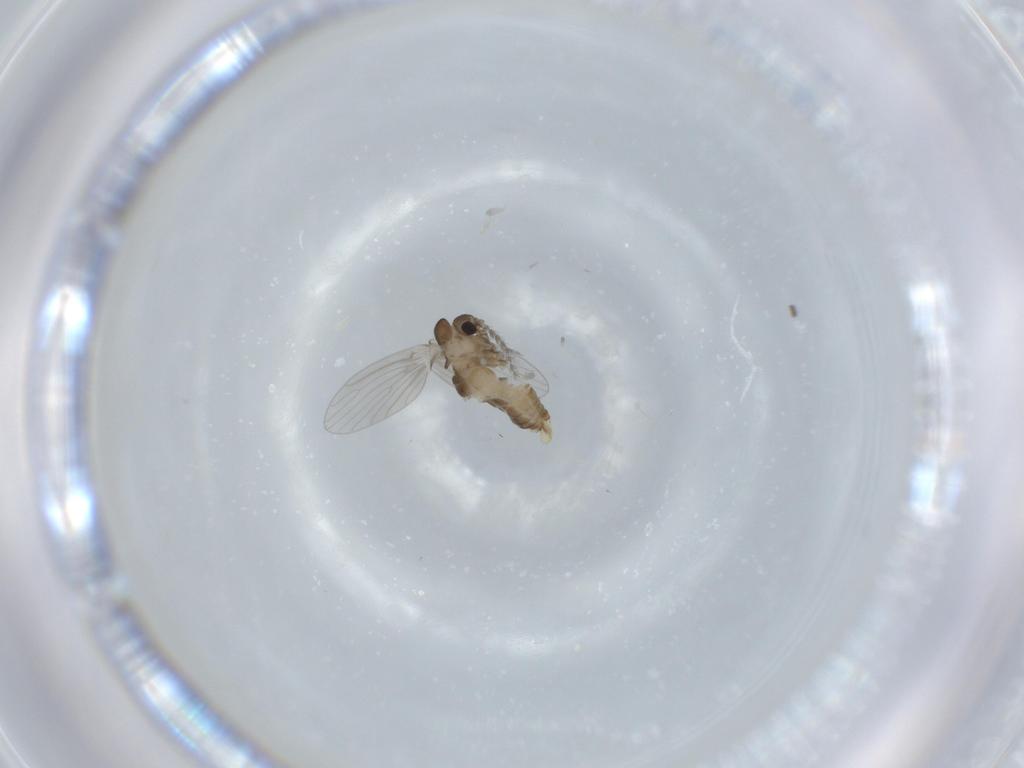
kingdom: Animalia
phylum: Arthropoda
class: Insecta
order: Diptera
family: Psychodidae
